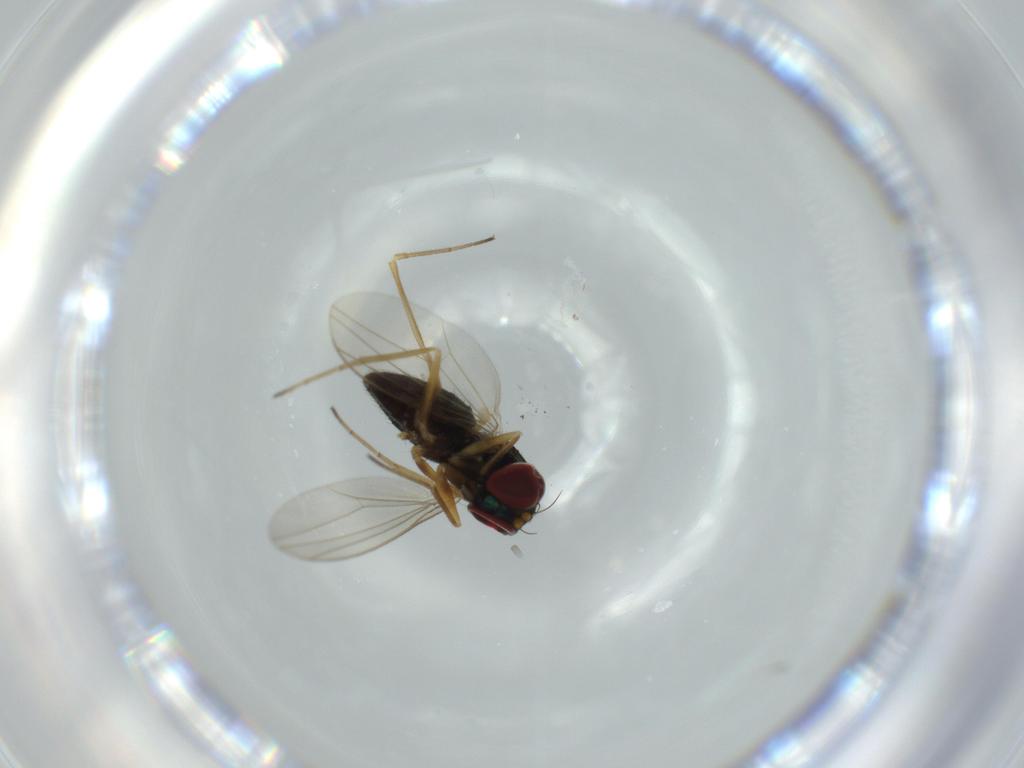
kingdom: Animalia
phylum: Arthropoda
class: Insecta
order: Diptera
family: Cecidomyiidae
